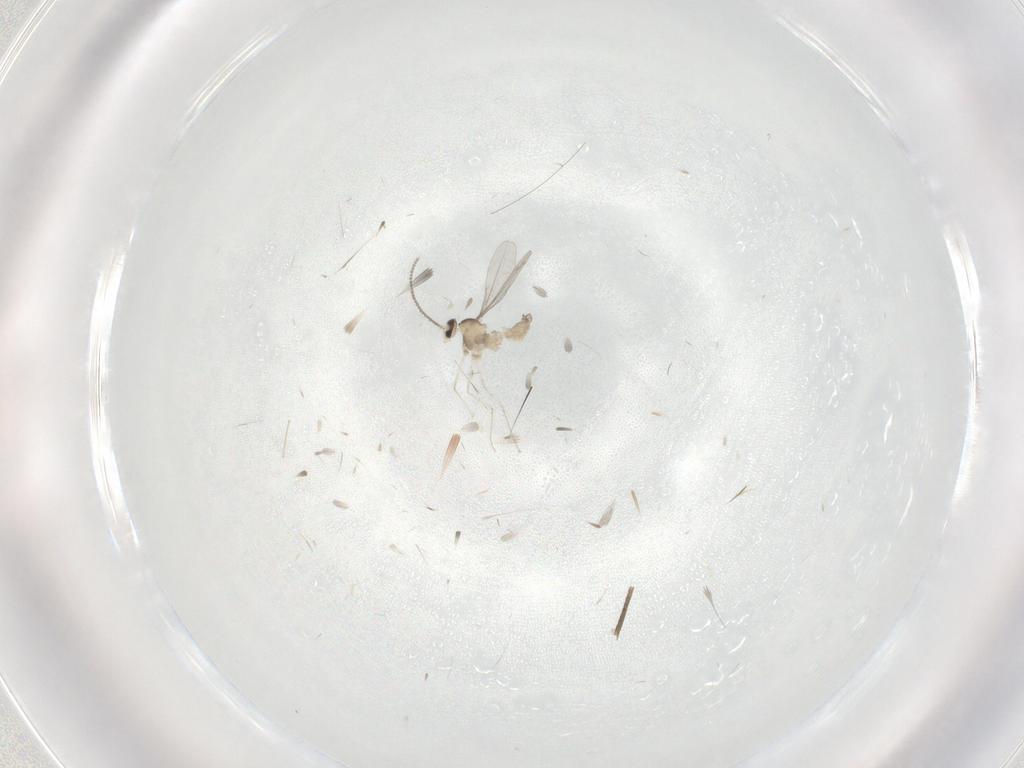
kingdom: Animalia
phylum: Arthropoda
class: Insecta
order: Diptera
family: Cecidomyiidae
